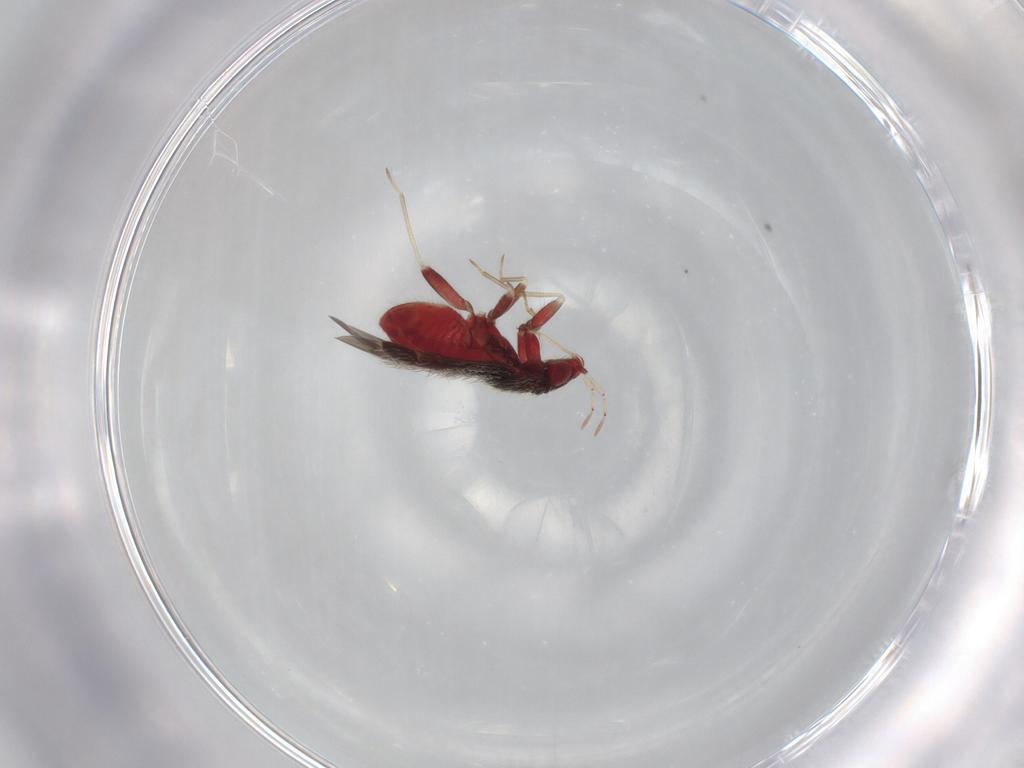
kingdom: Animalia
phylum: Arthropoda
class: Insecta
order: Hemiptera
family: Miridae
